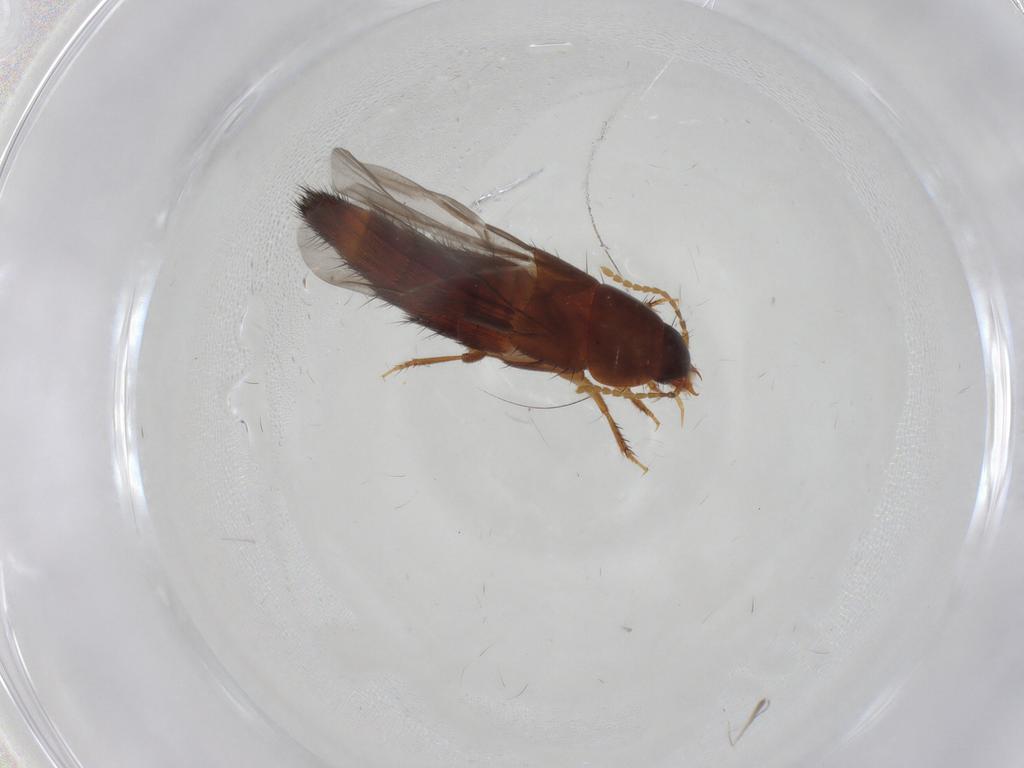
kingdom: Animalia
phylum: Arthropoda
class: Insecta
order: Coleoptera
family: Staphylinidae
